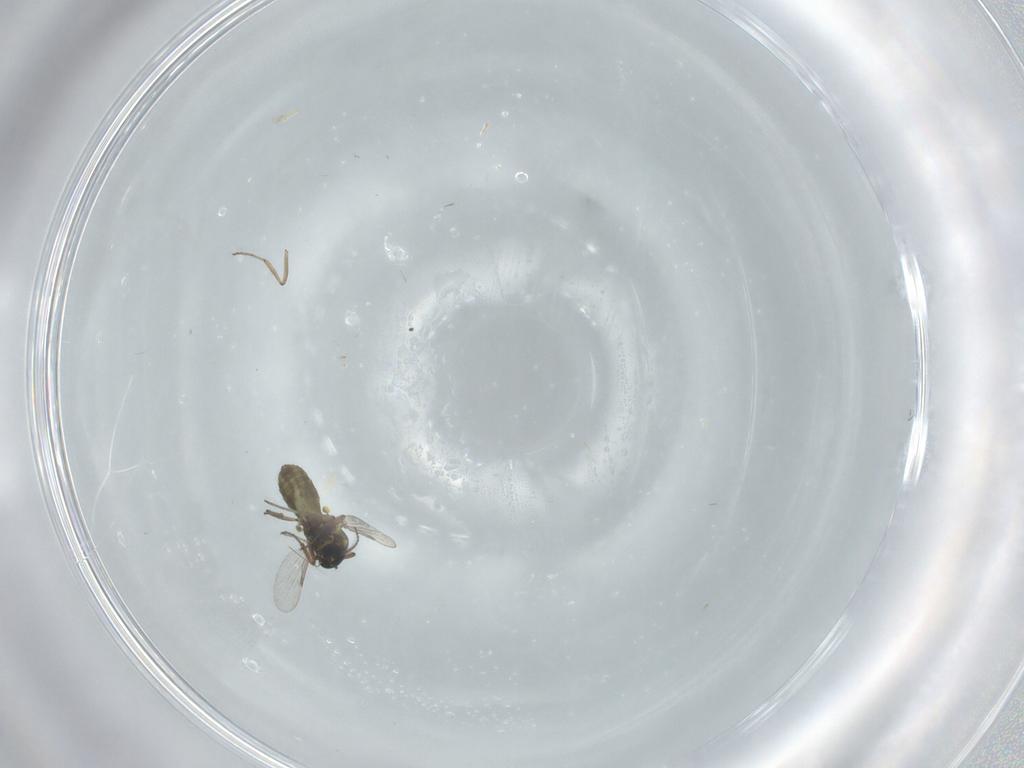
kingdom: Animalia
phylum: Arthropoda
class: Insecta
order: Diptera
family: Ceratopogonidae
